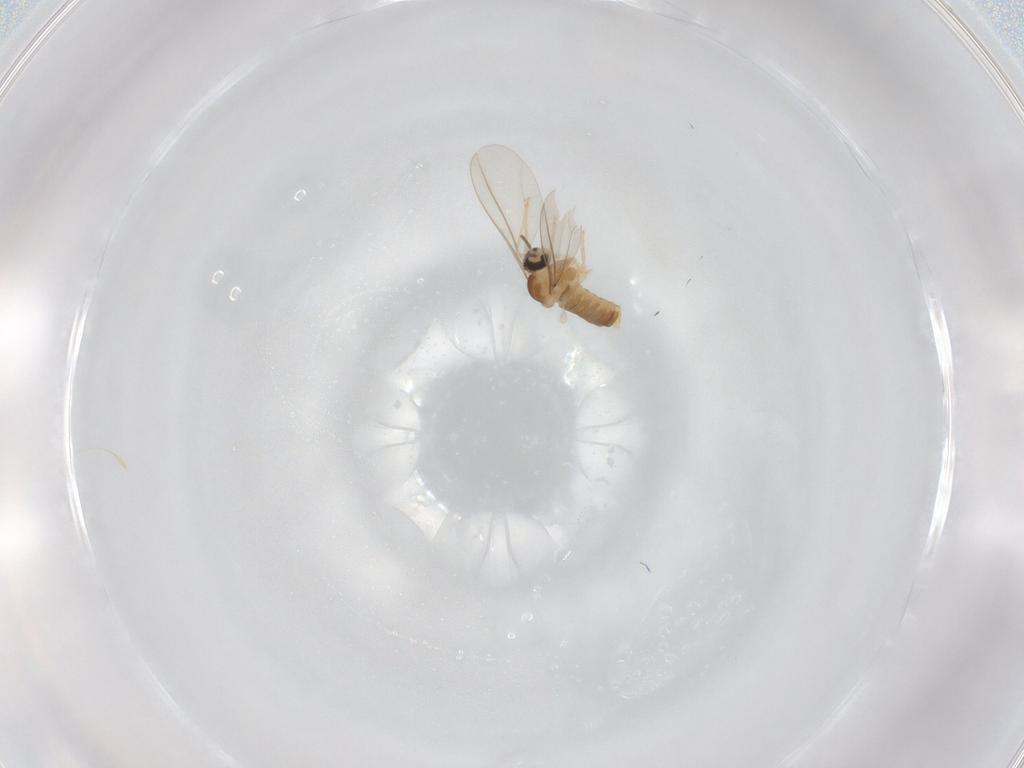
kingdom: Animalia
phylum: Arthropoda
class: Insecta
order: Diptera
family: Cecidomyiidae
